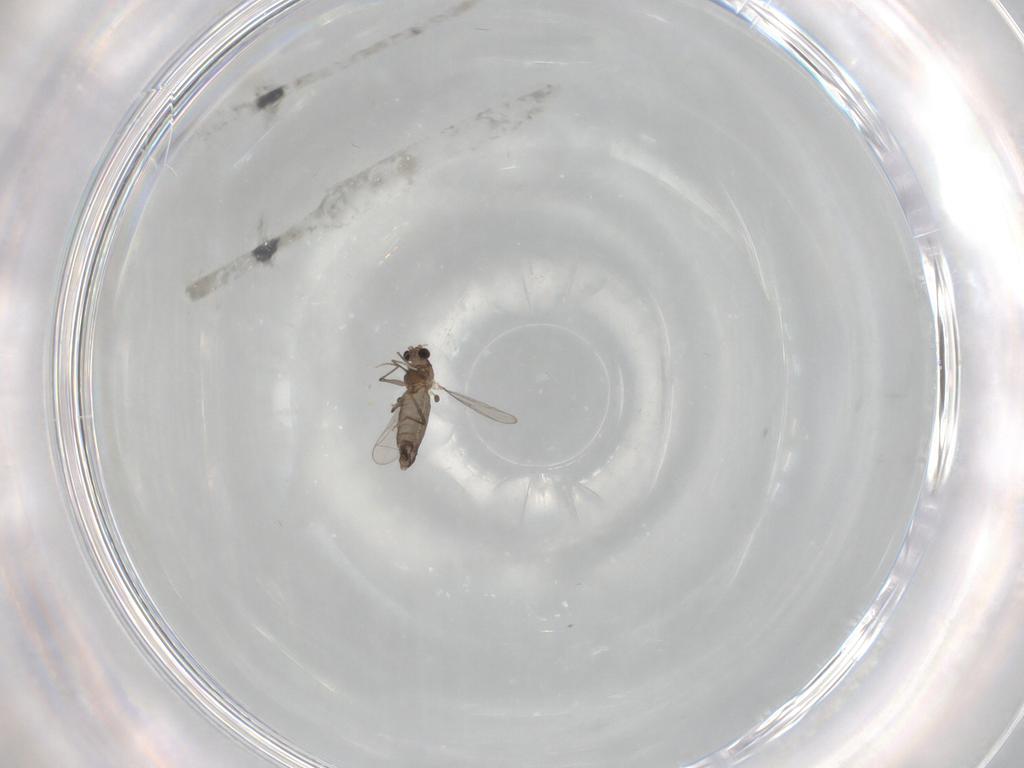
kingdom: Animalia
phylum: Arthropoda
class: Insecta
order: Diptera
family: Chironomidae
